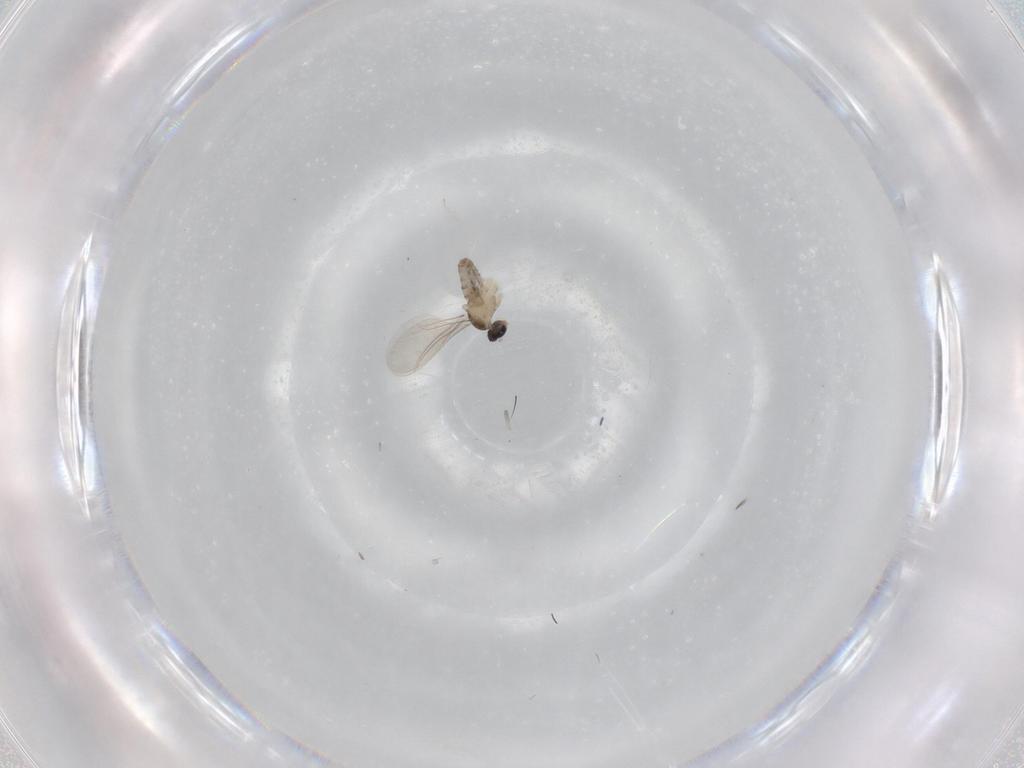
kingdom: Animalia
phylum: Arthropoda
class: Insecta
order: Diptera
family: Cecidomyiidae
